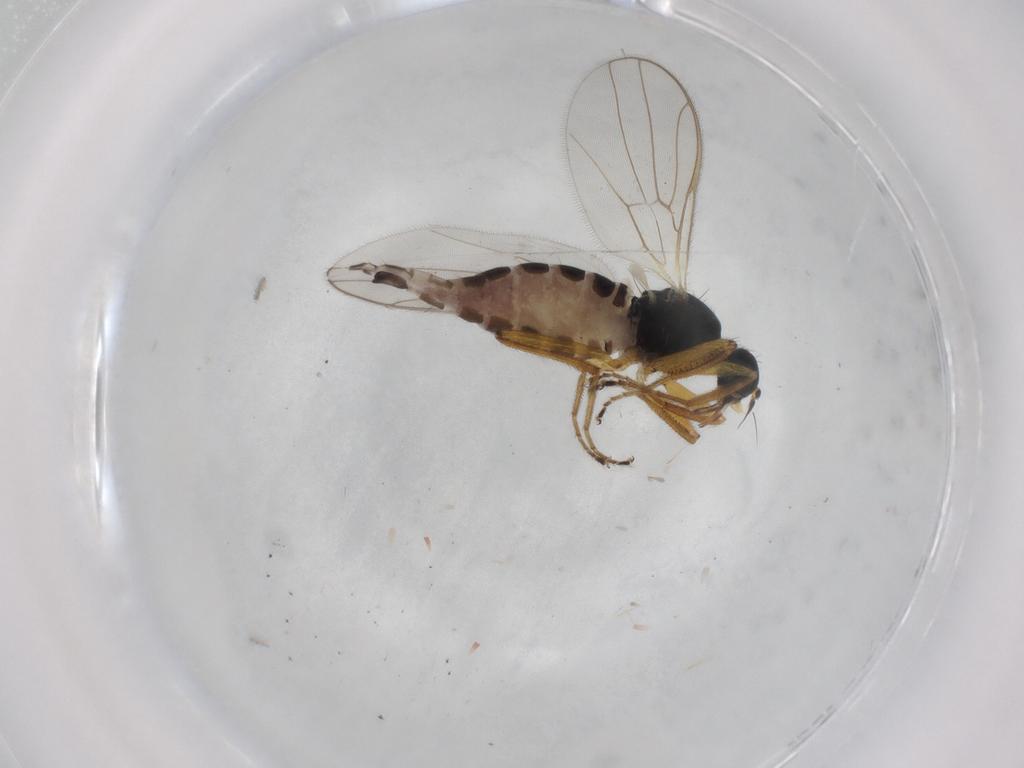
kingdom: Animalia
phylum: Arthropoda
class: Insecta
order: Diptera
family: Hybotidae
